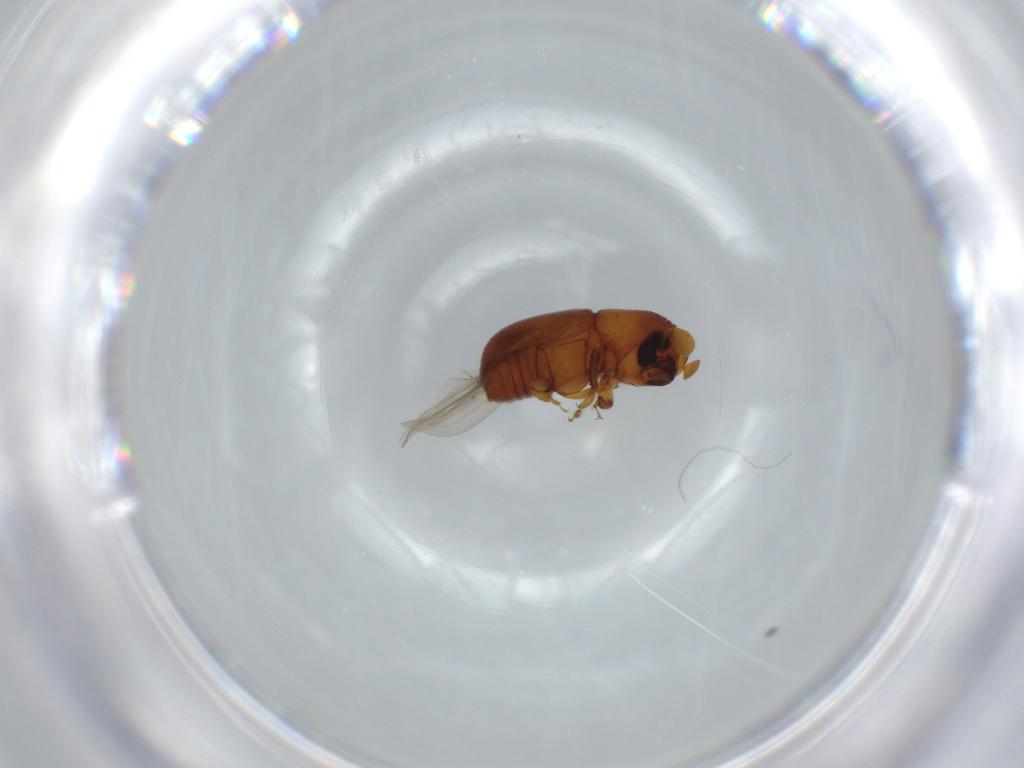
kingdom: Animalia
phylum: Arthropoda
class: Insecta
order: Coleoptera
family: Curculionidae
